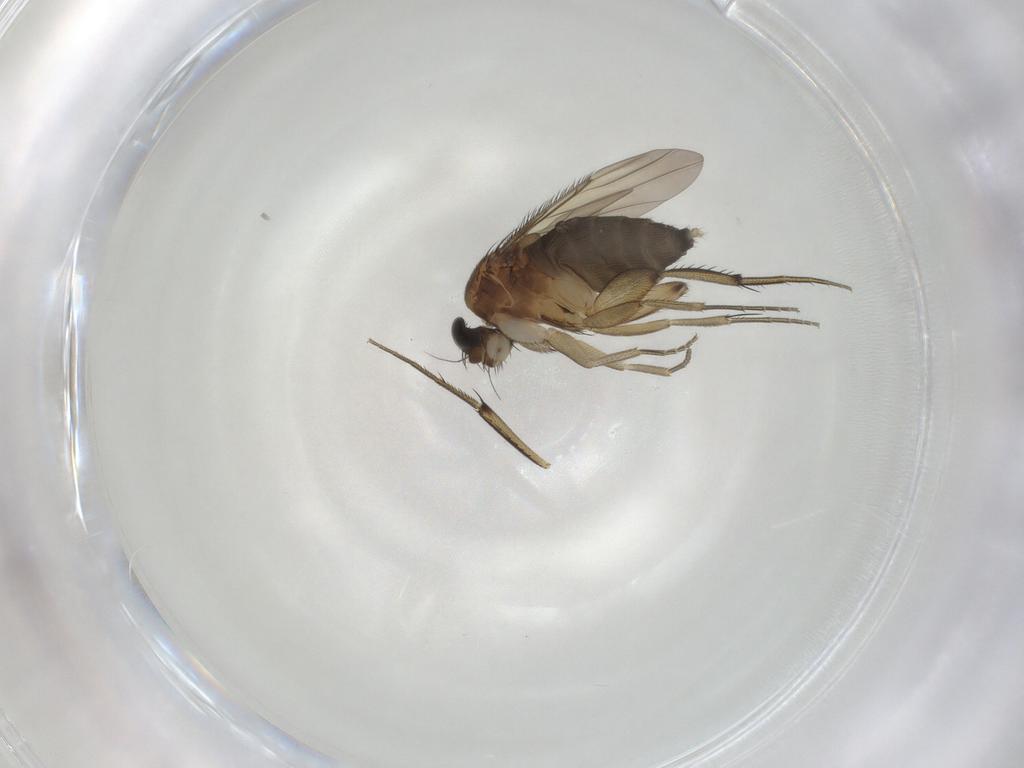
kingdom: Animalia
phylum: Arthropoda
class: Insecta
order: Diptera
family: Phoridae
